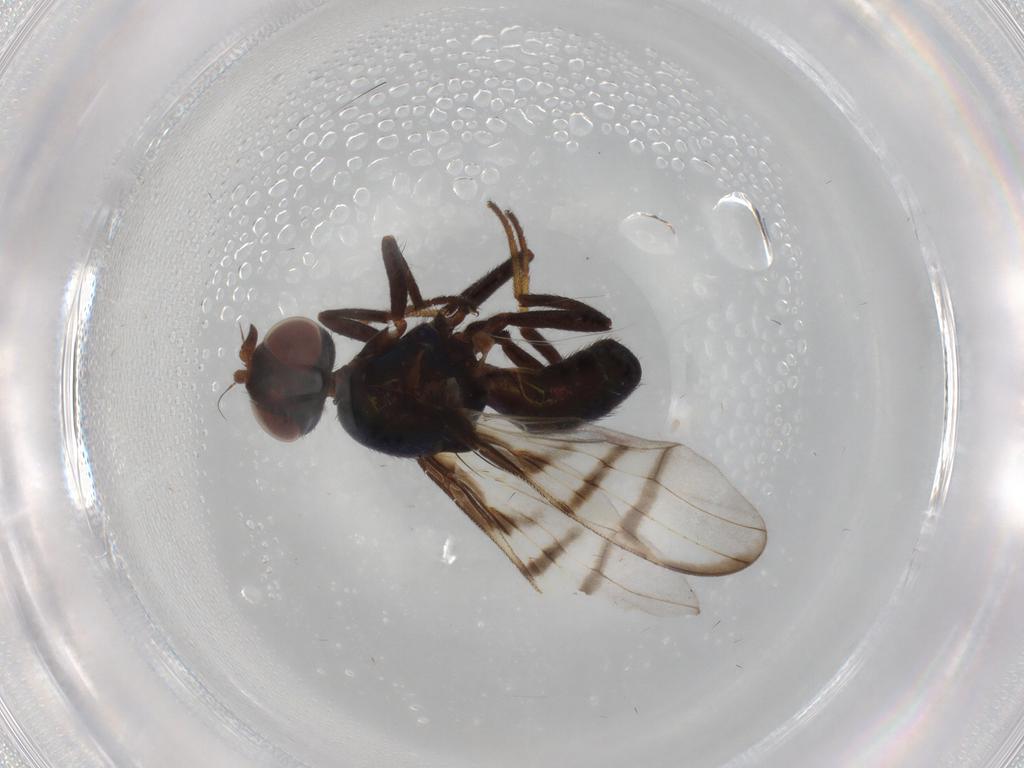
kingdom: Animalia
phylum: Arthropoda
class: Insecta
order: Diptera
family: Platystomatidae
